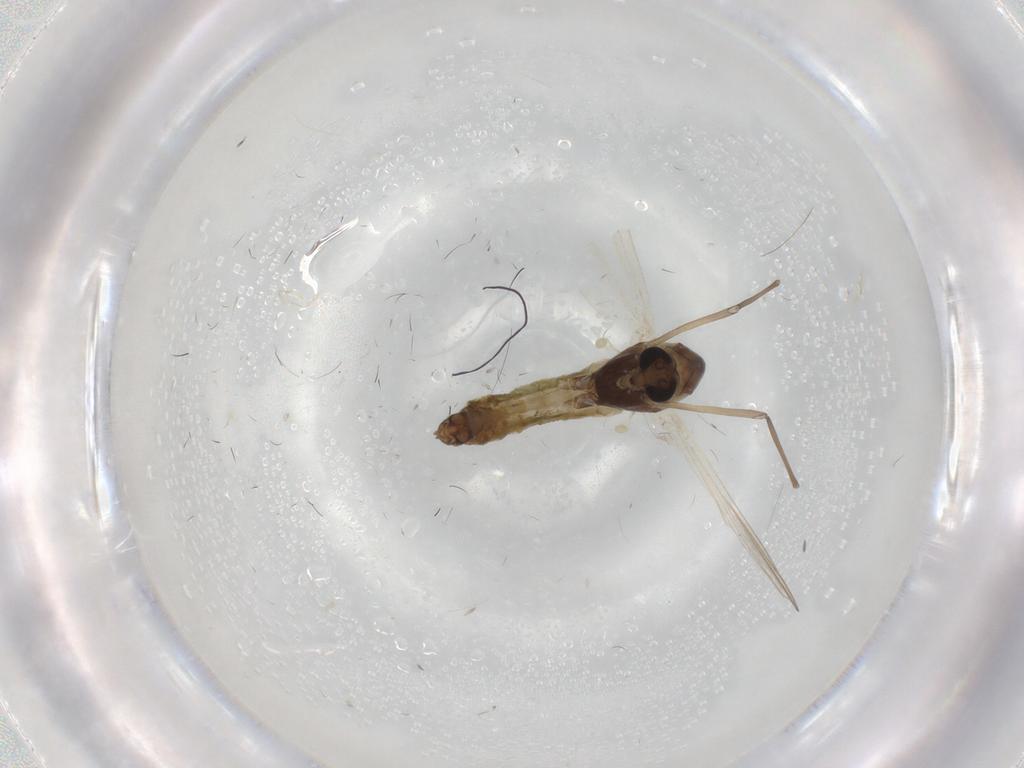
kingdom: Animalia
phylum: Arthropoda
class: Insecta
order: Diptera
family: Chironomidae
